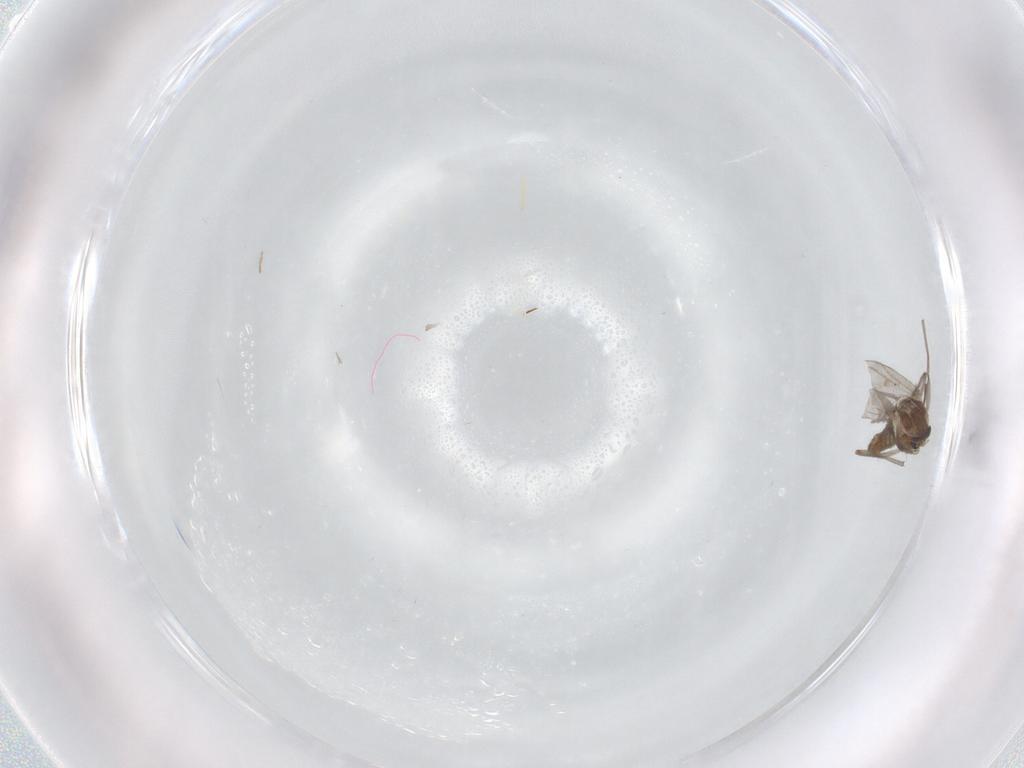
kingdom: Animalia
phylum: Arthropoda
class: Insecta
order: Diptera
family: Chironomidae
